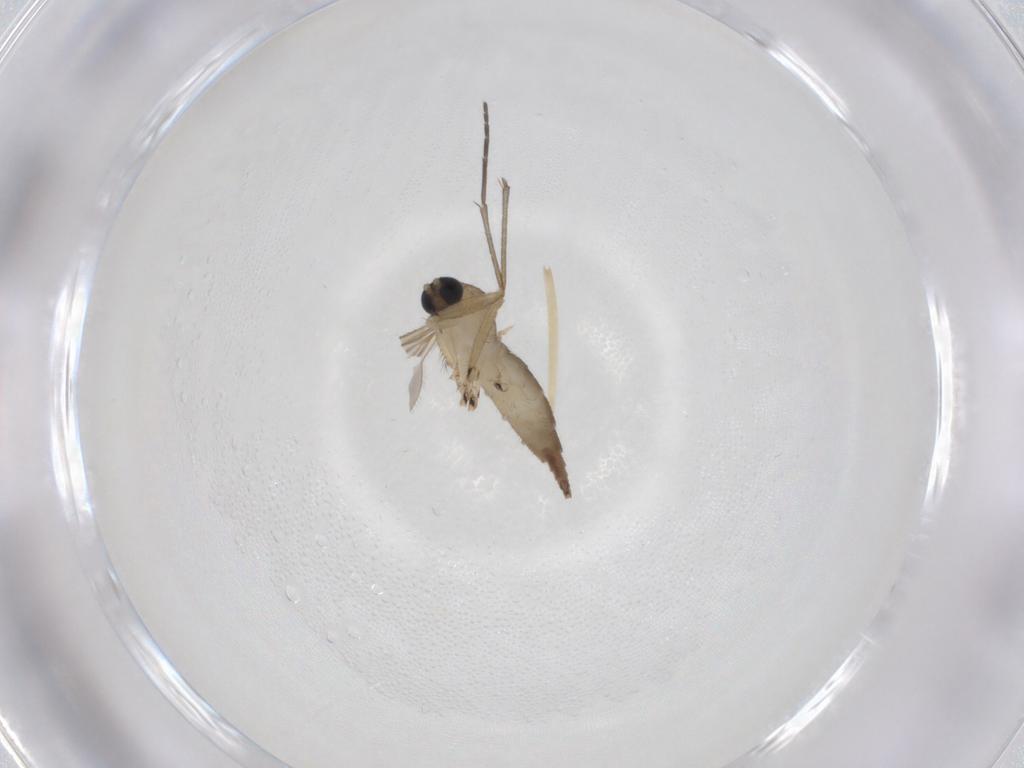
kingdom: Animalia
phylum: Arthropoda
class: Insecta
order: Diptera
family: Sciaridae
